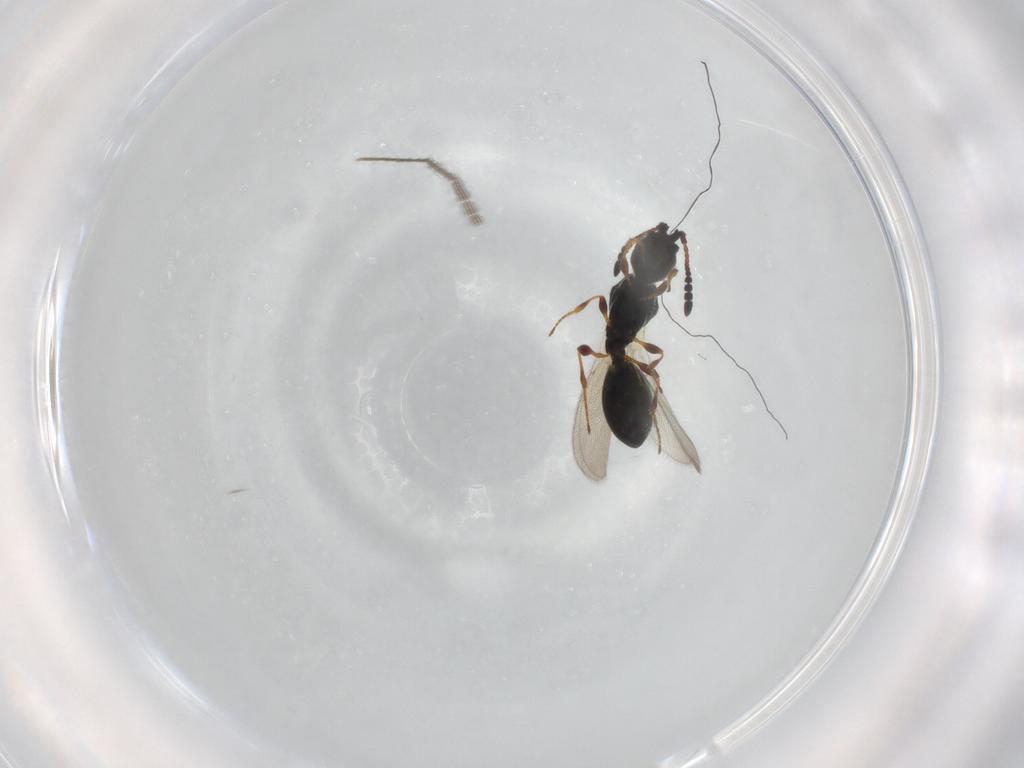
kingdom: Animalia
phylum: Arthropoda
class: Insecta
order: Hymenoptera
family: Diapriidae
